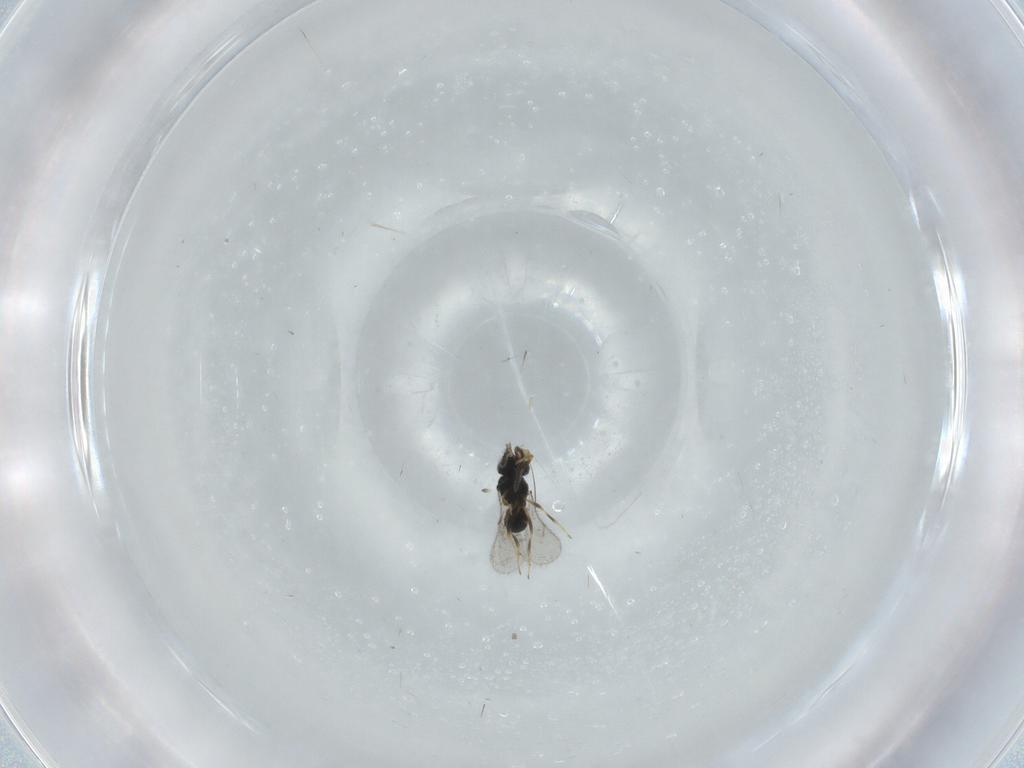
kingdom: Animalia
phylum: Arthropoda
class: Insecta
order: Hymenoptera
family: Scelionidae
